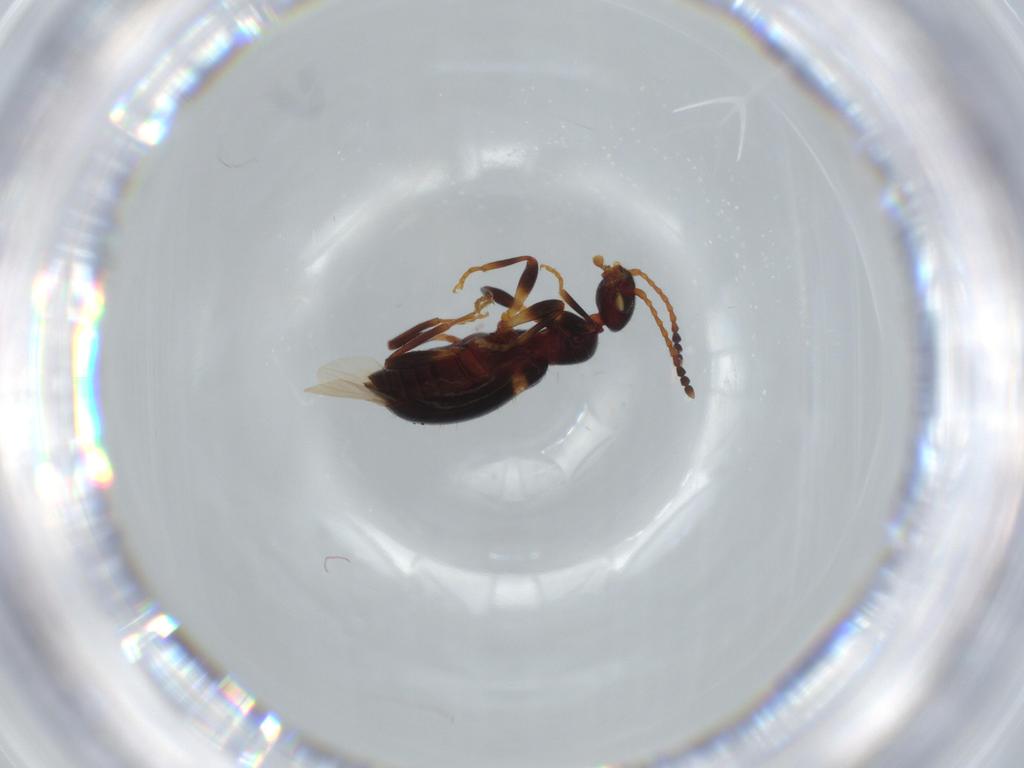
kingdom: Animalia
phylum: Arthropoda
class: Insecta
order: Coleoptera
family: Anthicidae
